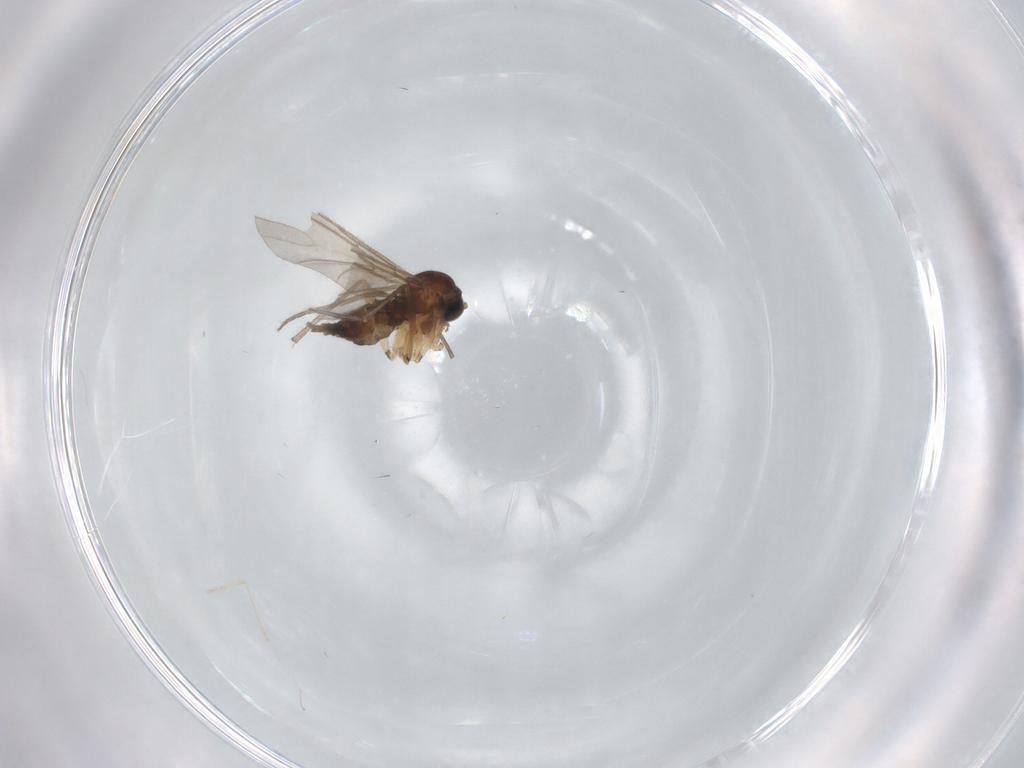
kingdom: Animalia
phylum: Arthropoda
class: Insecta
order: Diptera
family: Sciaridae
